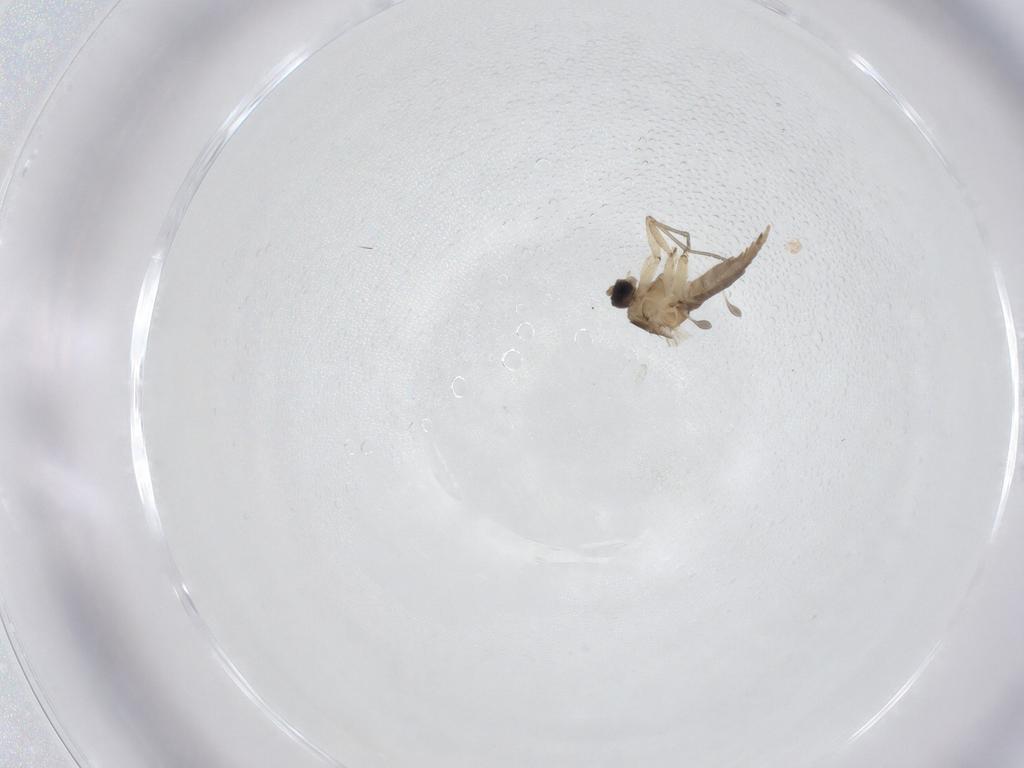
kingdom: Animalia
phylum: Arthropoda
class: Insecta
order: Diptera
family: Sciaridae
